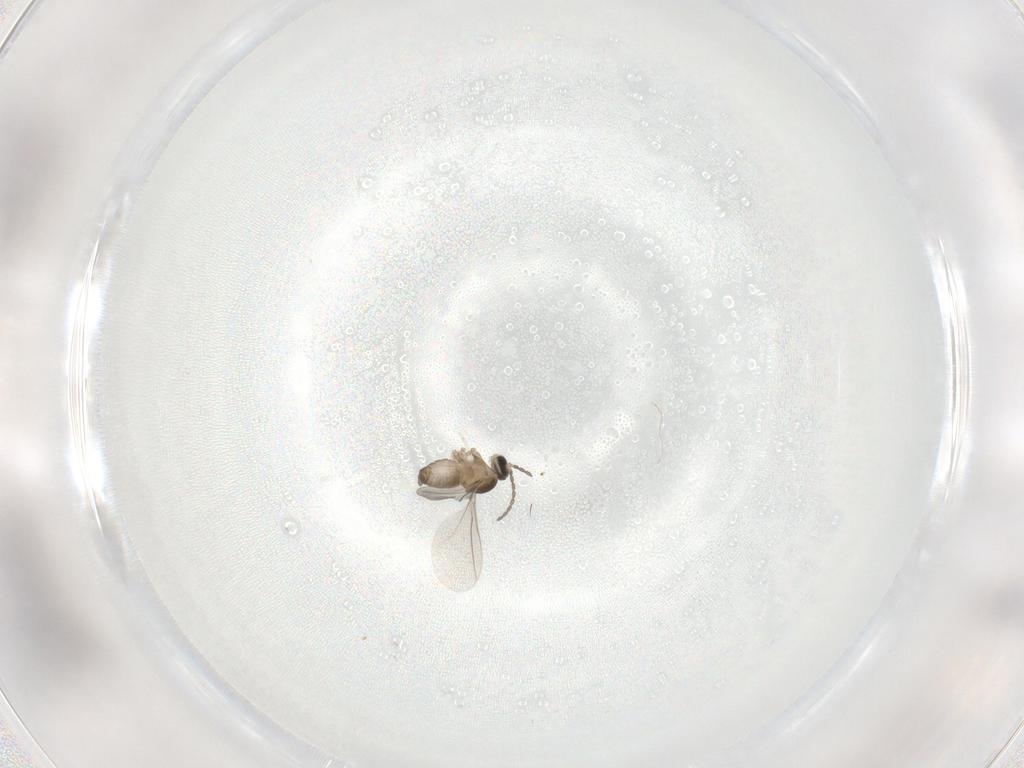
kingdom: Animalia
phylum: Arthropoda
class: Insecta
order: Diptera
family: Cecidomyiidae
